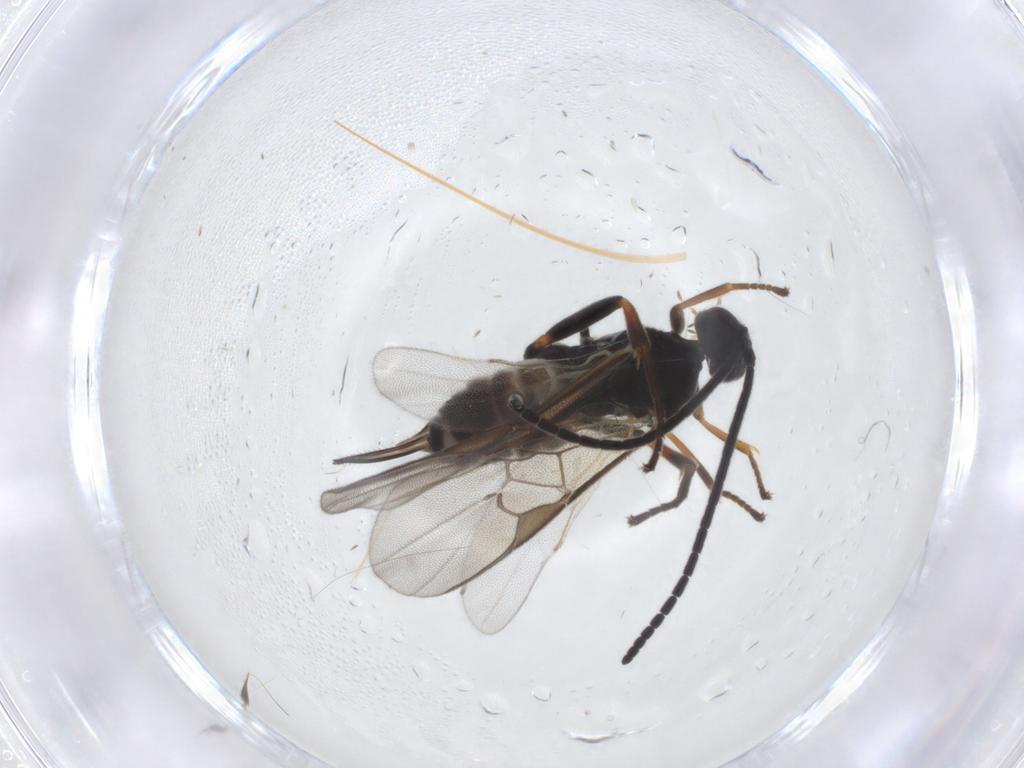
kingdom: Animalia
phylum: Arthropoda
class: Insecta
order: Hymenoptera
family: Braconidae
